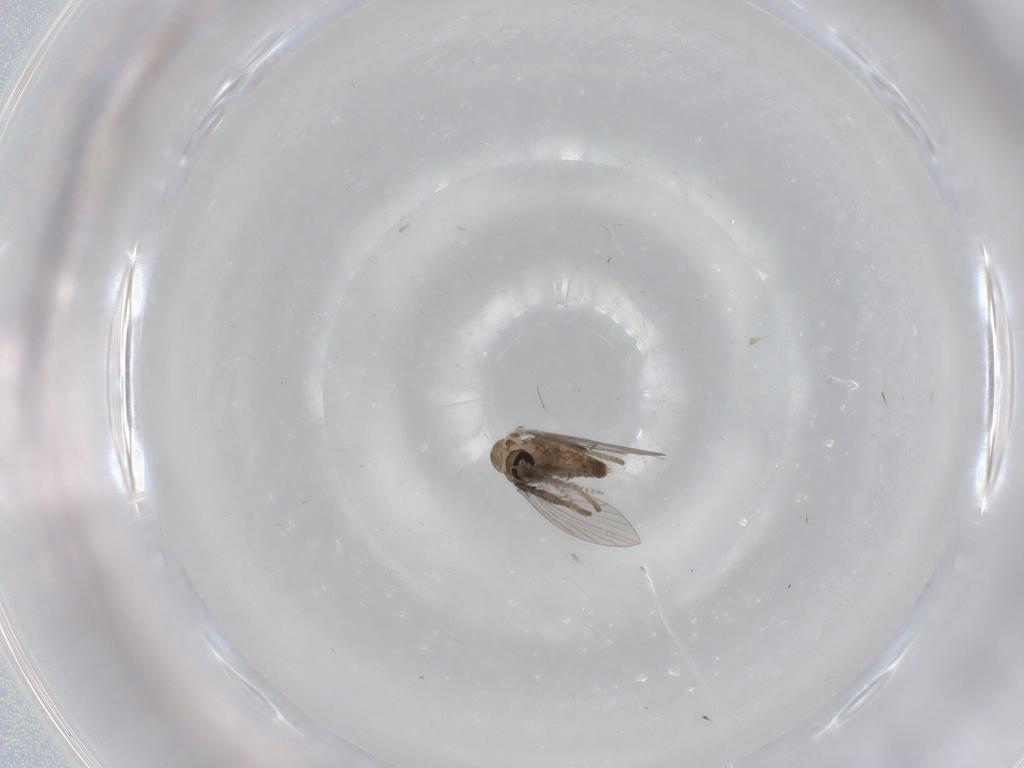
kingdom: Animalia
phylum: Arthropoda
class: Insecta
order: Diptera
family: Psychodidae
